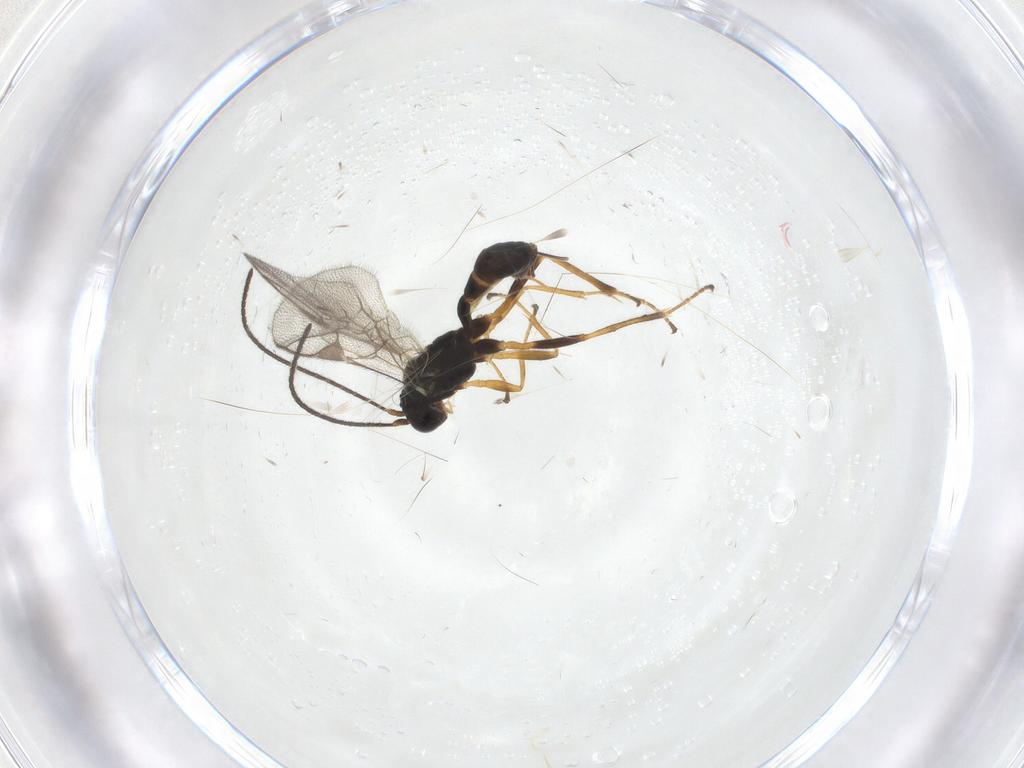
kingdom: Animalia
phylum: Arthropoda
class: Insecta
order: Hymenoptera
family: Ichneumonidae
